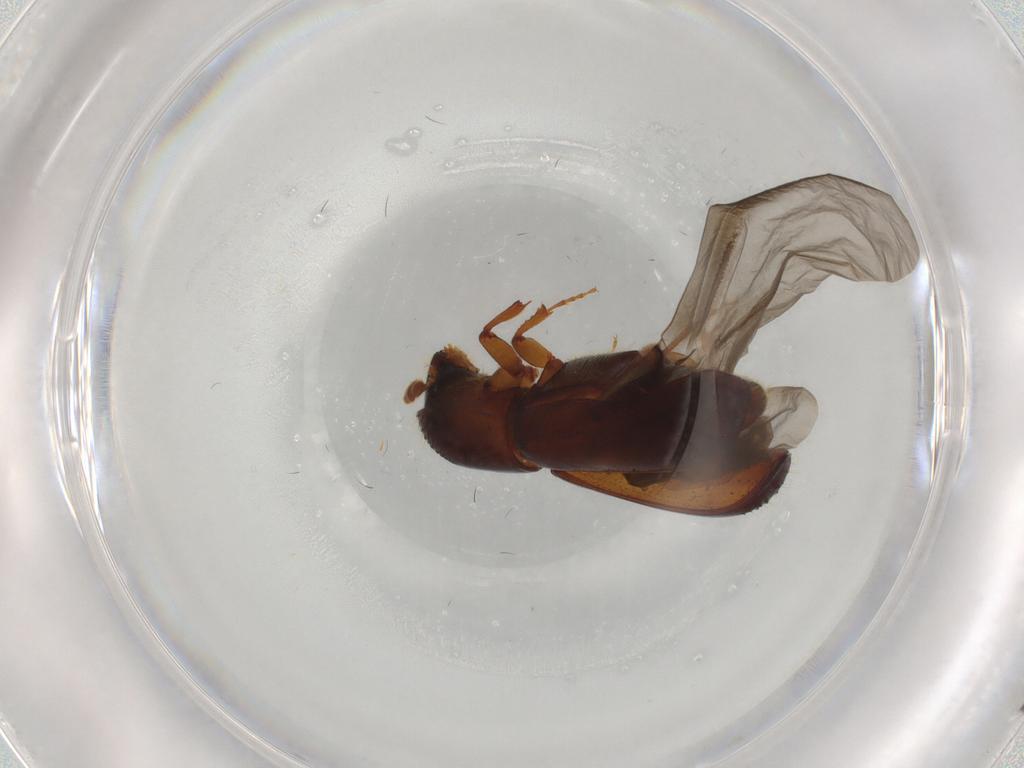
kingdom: Animalia
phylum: Arthropoda
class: Insecta
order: Coleoptera
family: Curculionidae
